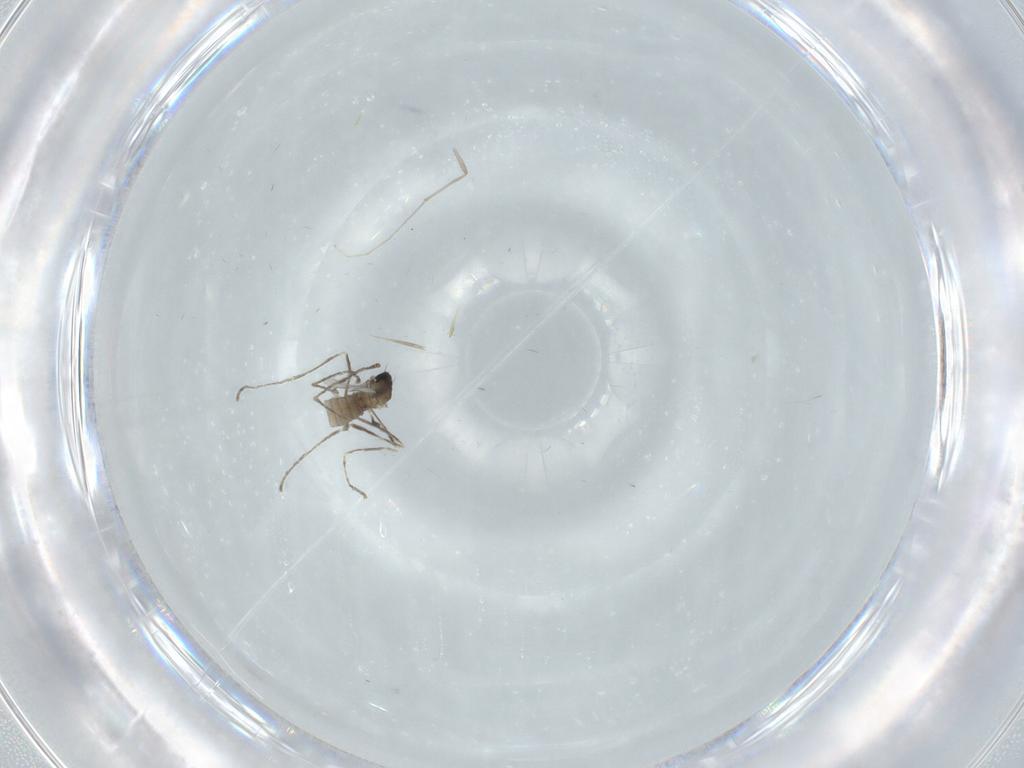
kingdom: Animalia
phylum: Arthropoda
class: Insecta
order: Diptera
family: Cecidomyiidae
